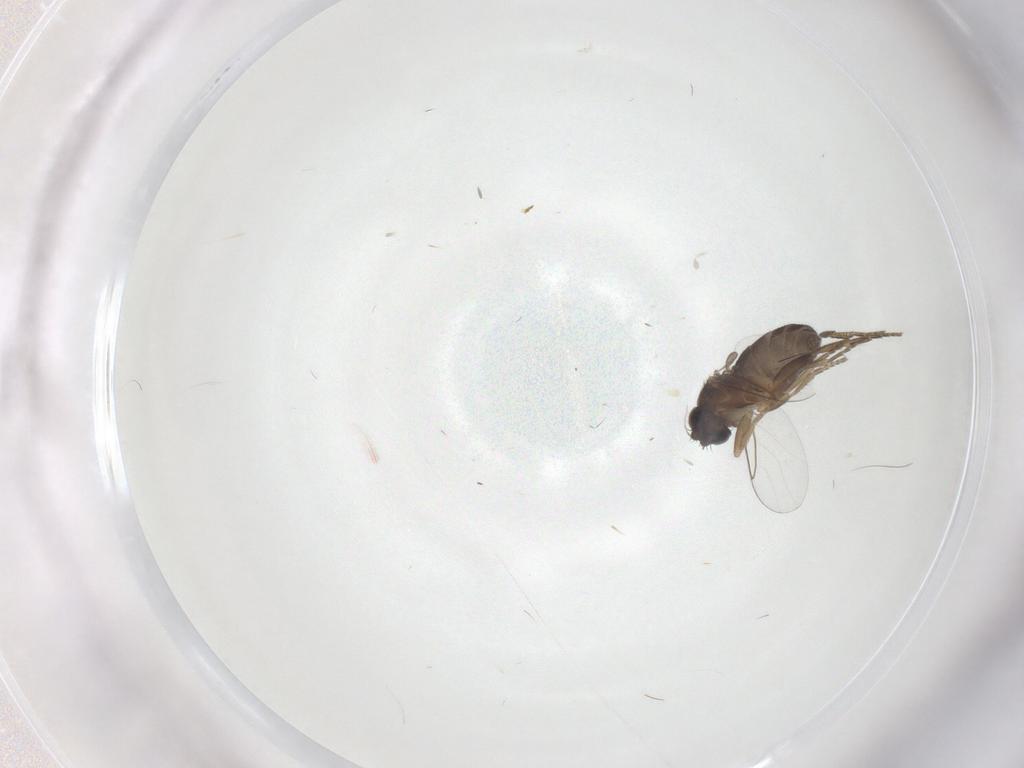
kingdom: Animalia
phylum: Arthropoda
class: Insecta
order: Diptera
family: Phoridae
